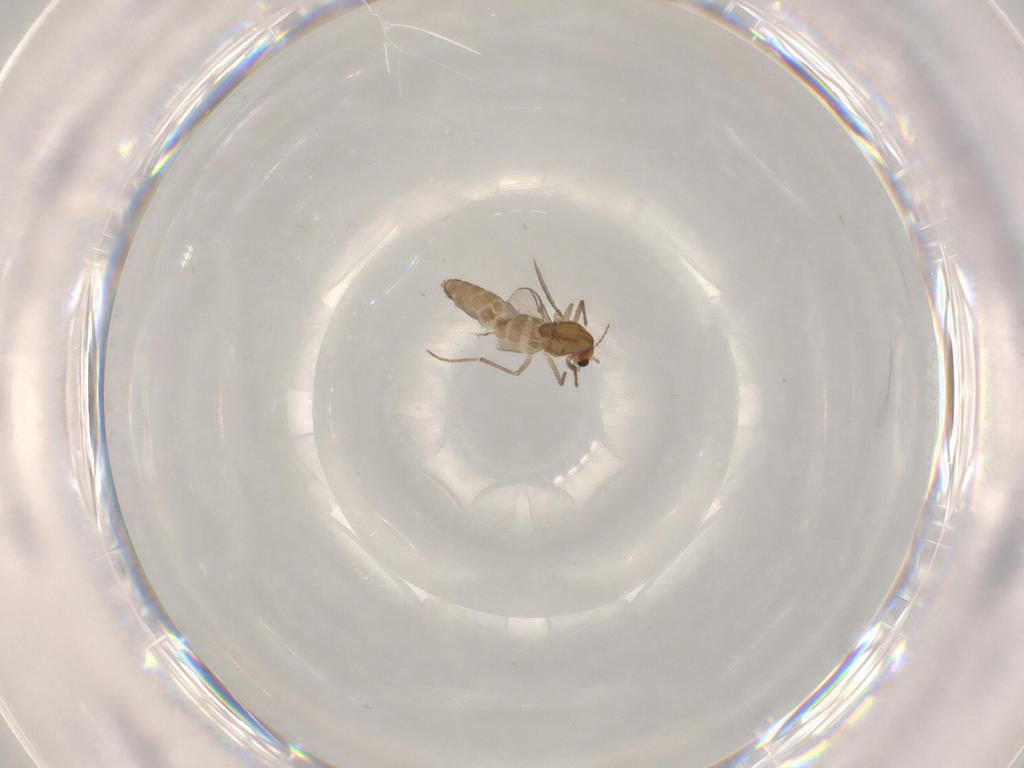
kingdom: Animalia
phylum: Arthropoda
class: Insecta
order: Diptera
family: Chironomidae
